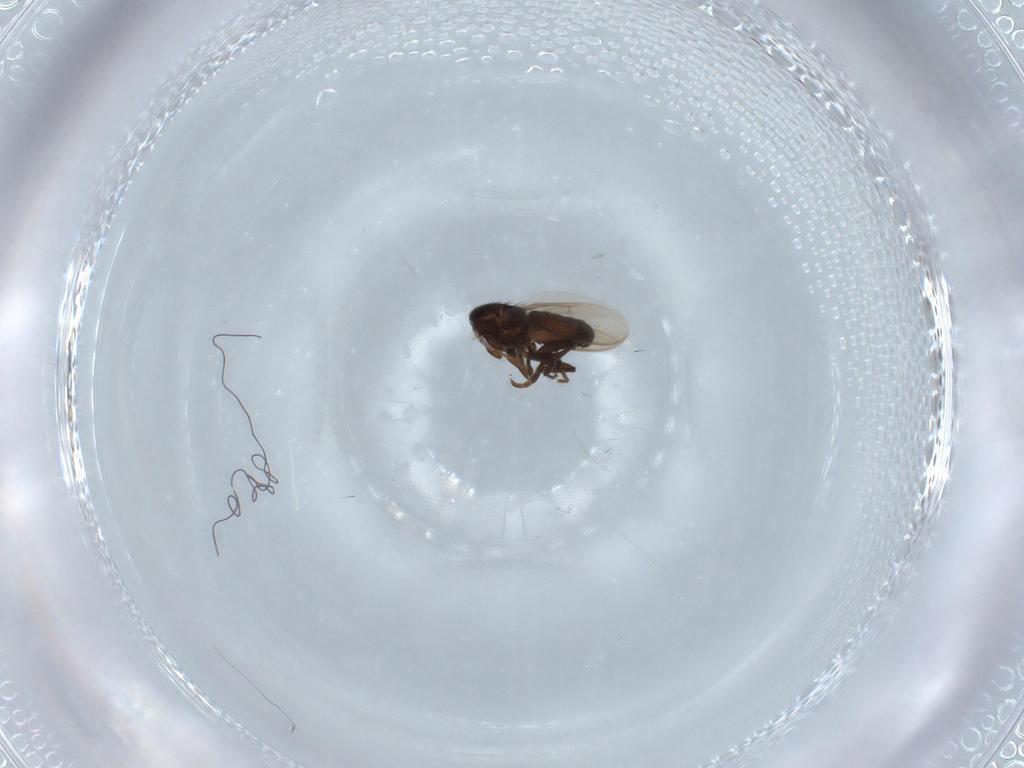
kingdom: Animalia
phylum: Arthropoda
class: Insecta
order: Diptera
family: Sphaeroceridae
